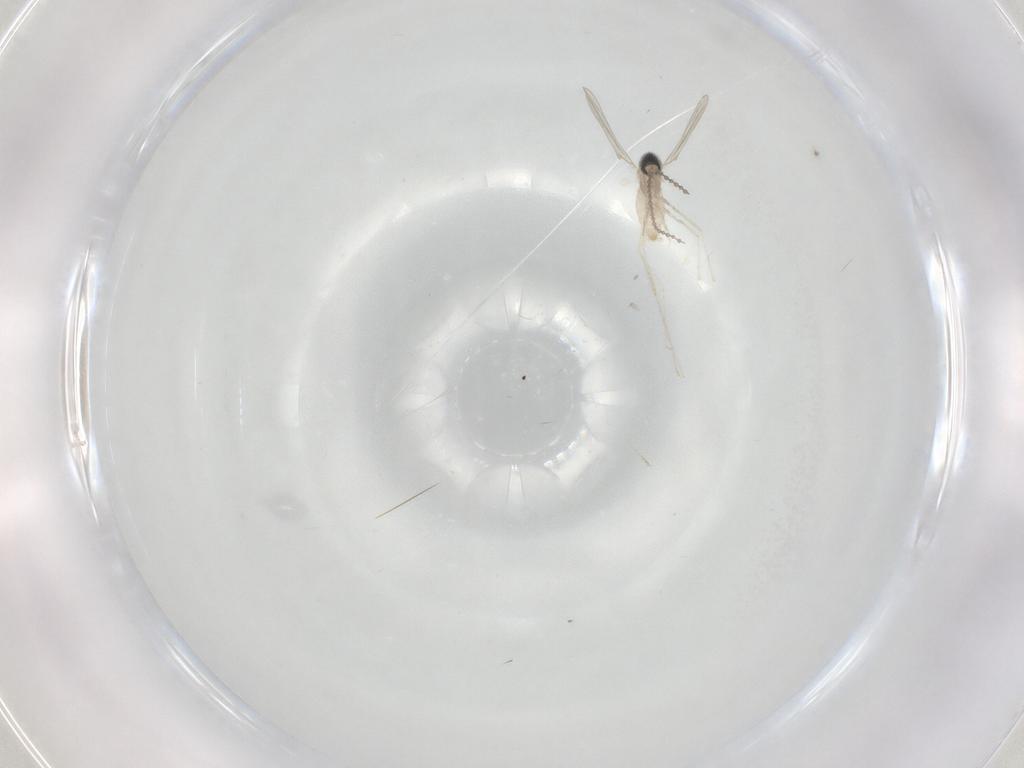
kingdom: Animalia
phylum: Arthropoda
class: Insecta
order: Diptera
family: Cecidomyiidae
